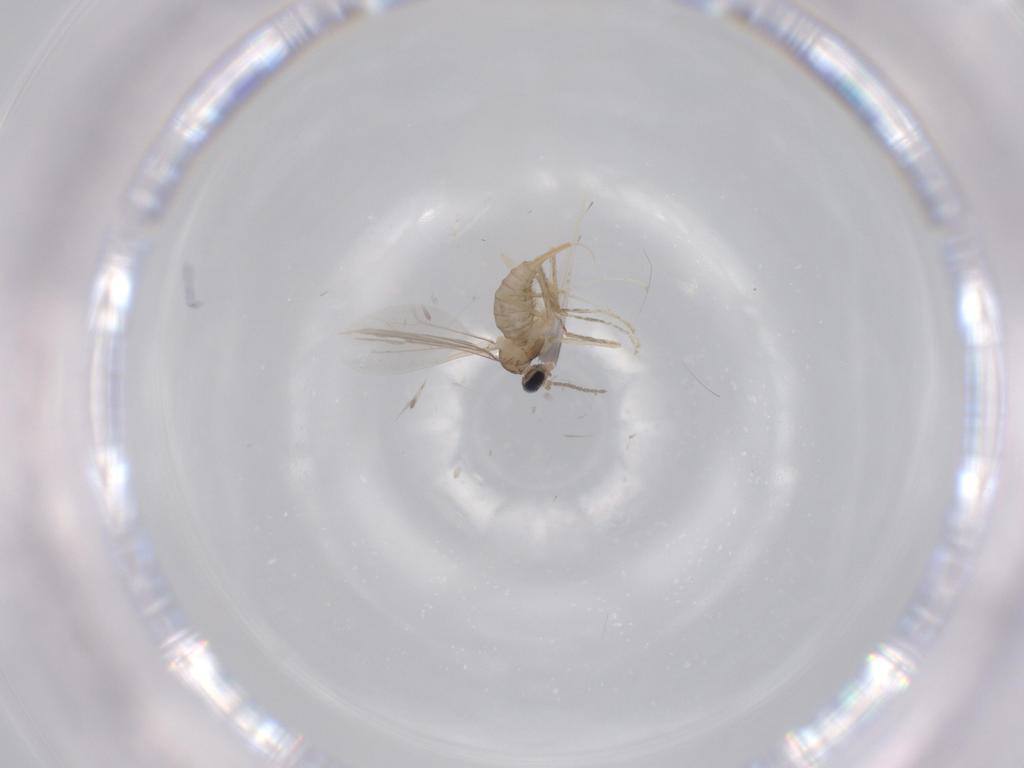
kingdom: Animalia
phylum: Arthropoda
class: Insecta
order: Diptera
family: Cecidomyiidae
